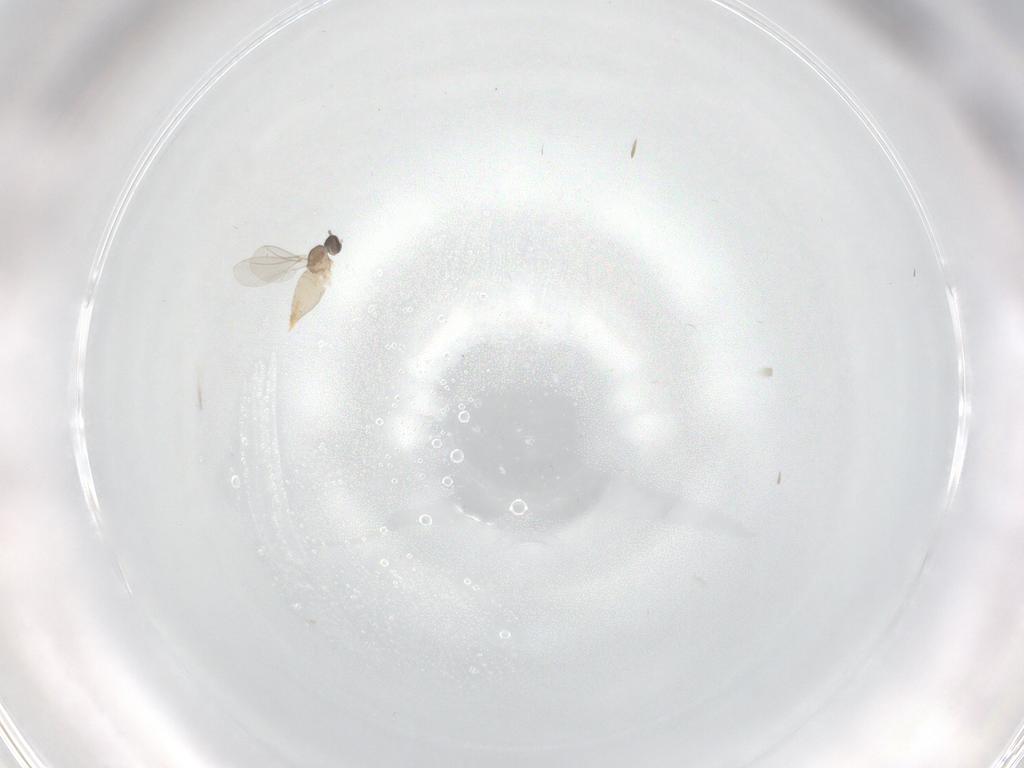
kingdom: Animalia
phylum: Arthropoda
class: Insecta
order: Diptera
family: Cecidomyiidae
